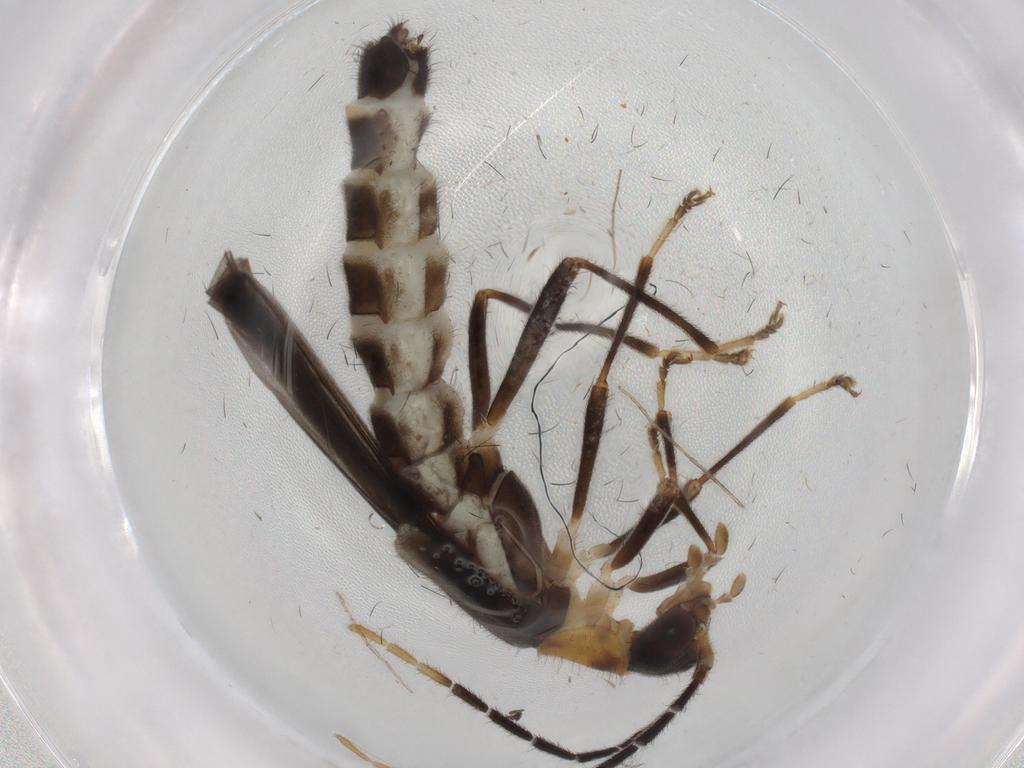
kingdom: Animalia
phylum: Arthropoda
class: Insecta
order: Coleoptera
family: Cantharidae
